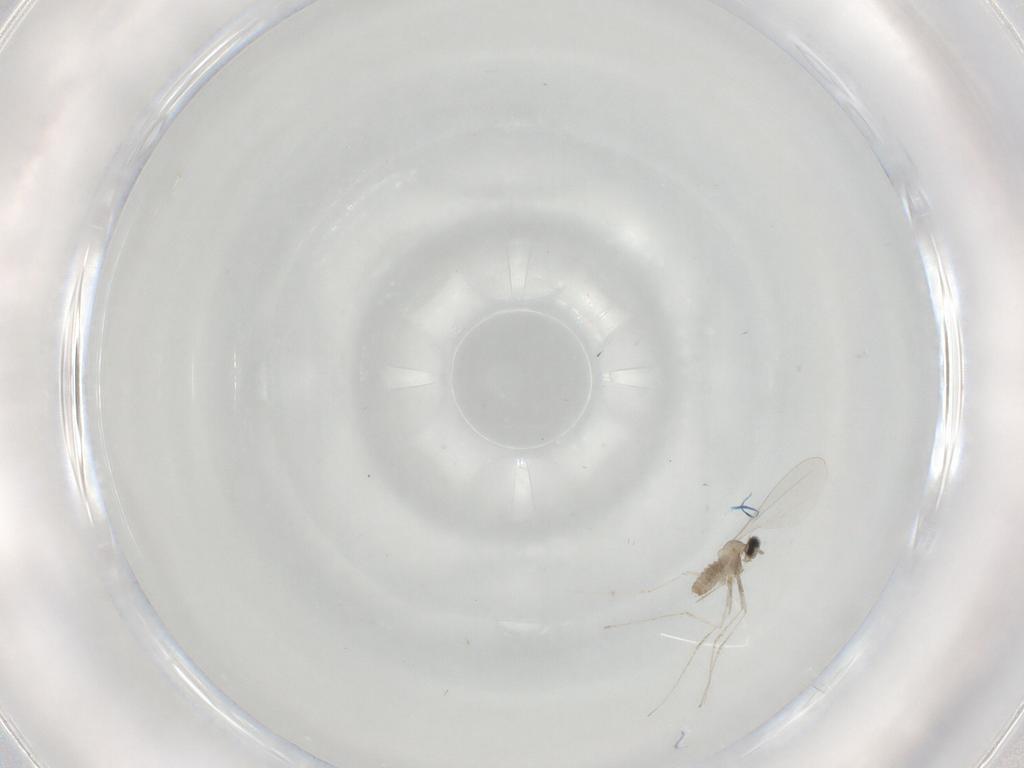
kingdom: Animalia
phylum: Arthropoda
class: Insecta
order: Diptera
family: Cecidomyiidae
